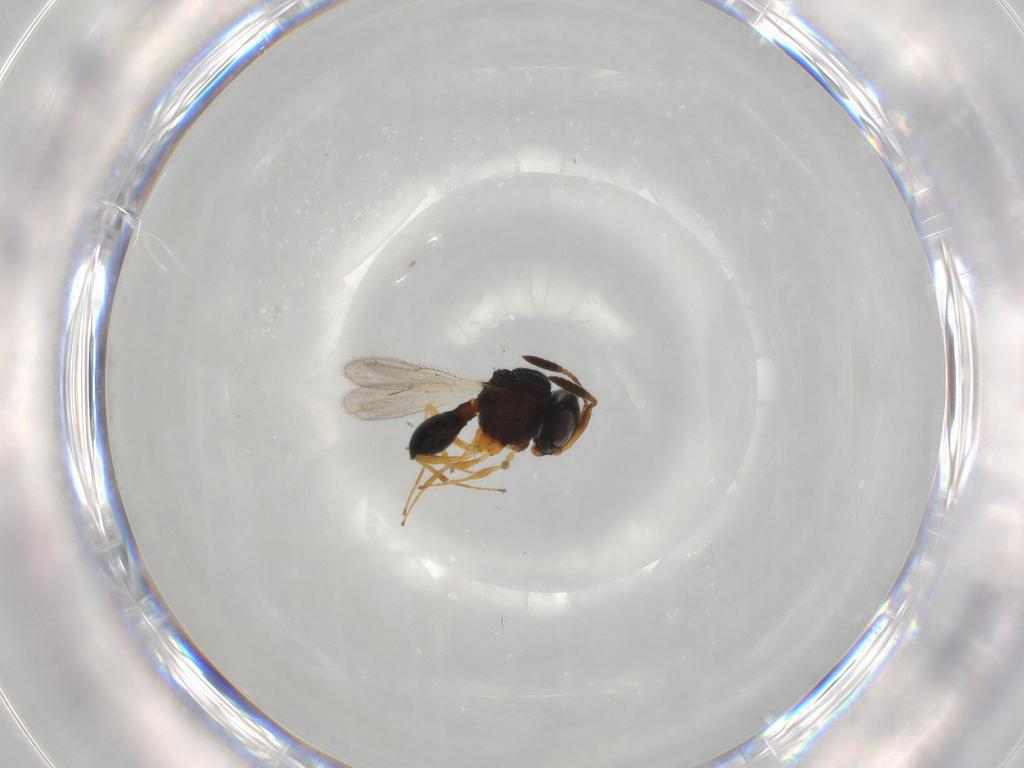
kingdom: Animalia
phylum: Arthropoda
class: Insecta
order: Hymenoptera
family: Scelionidae
